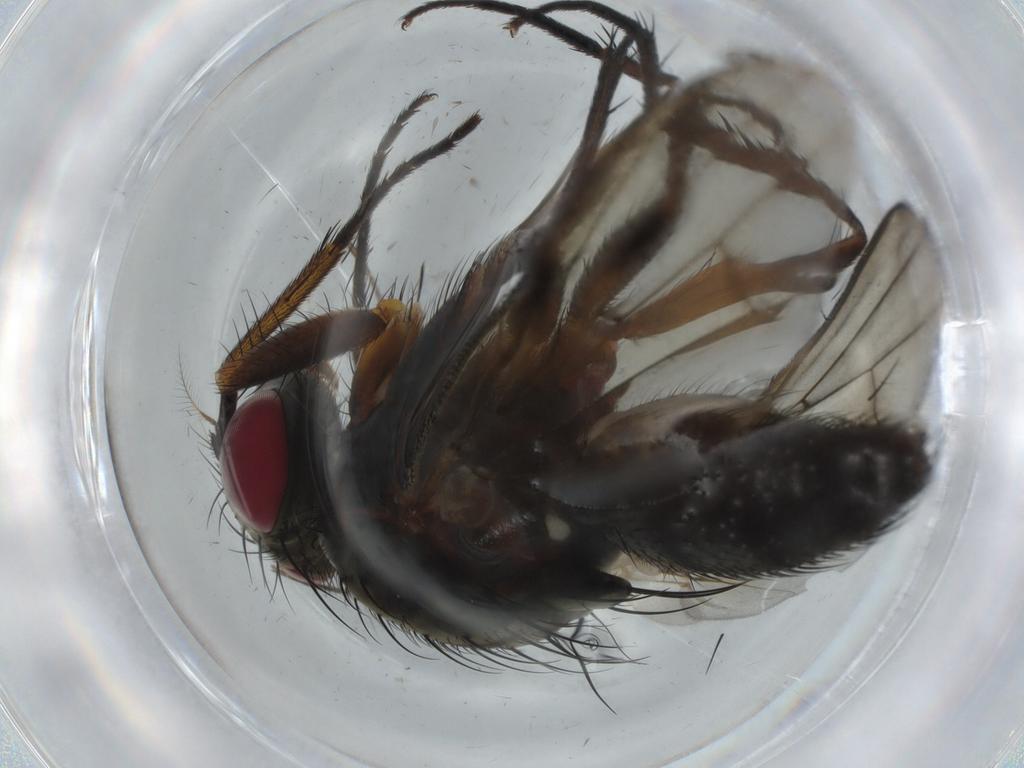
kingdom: Animalia
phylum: Arthropoda
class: Insecta
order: Diptera
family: Anthomyiidae
